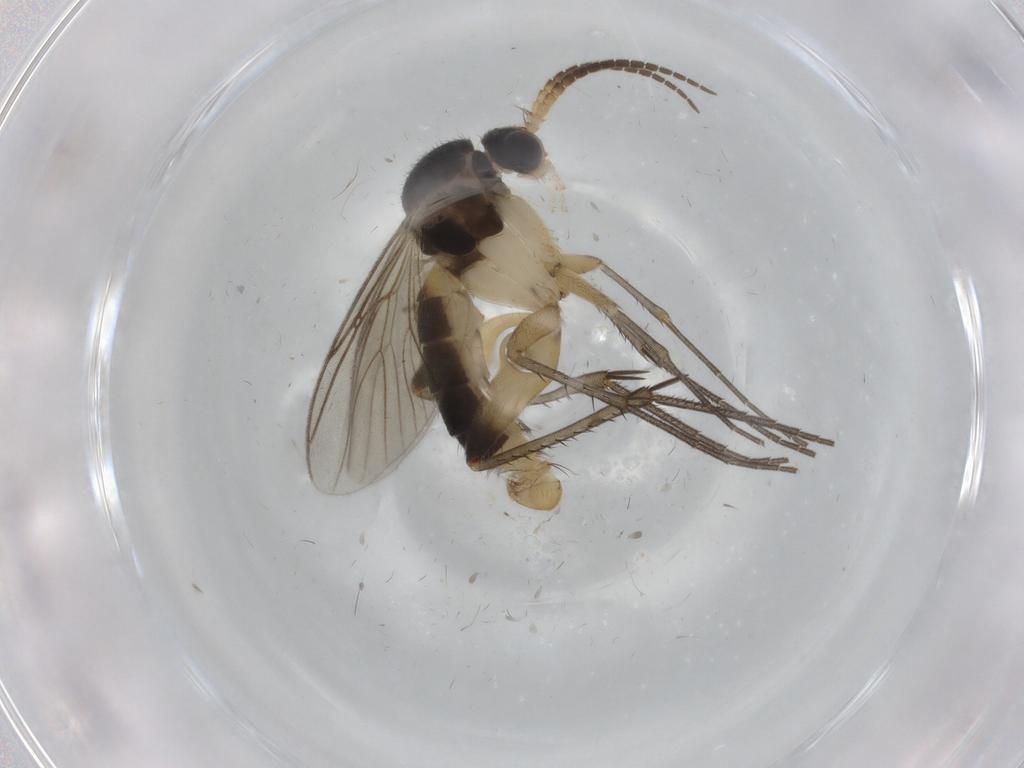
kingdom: Animalia
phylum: Arthropoda
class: Insecta
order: Diptera
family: Mycetophilidae
